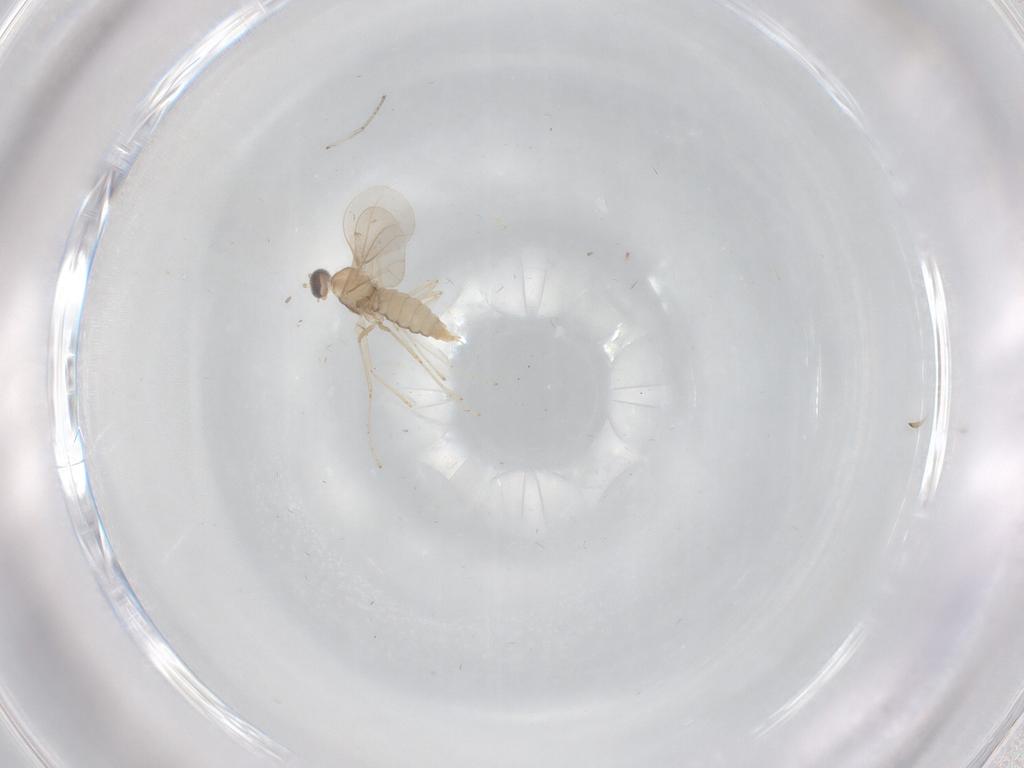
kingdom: Animalia
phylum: Arthropoda
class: Insecta
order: Diptera
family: Cecidomyiidae
